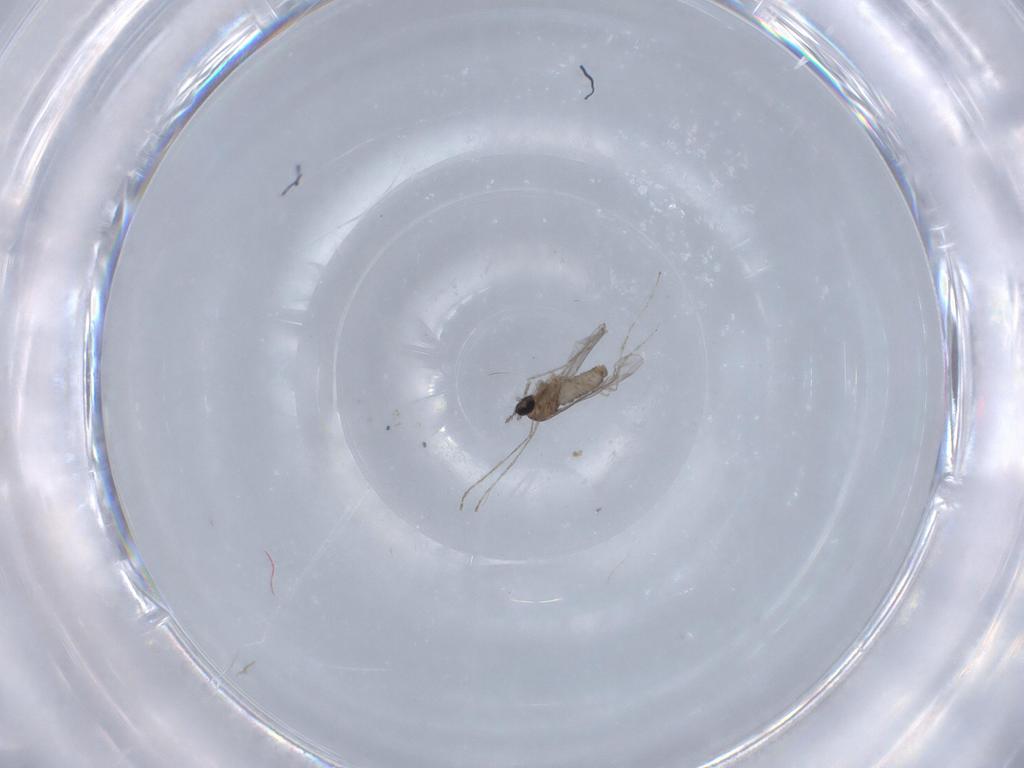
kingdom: Animalia
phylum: Arthropoda
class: Insecta
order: Diptera
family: Cecidomyiidae
